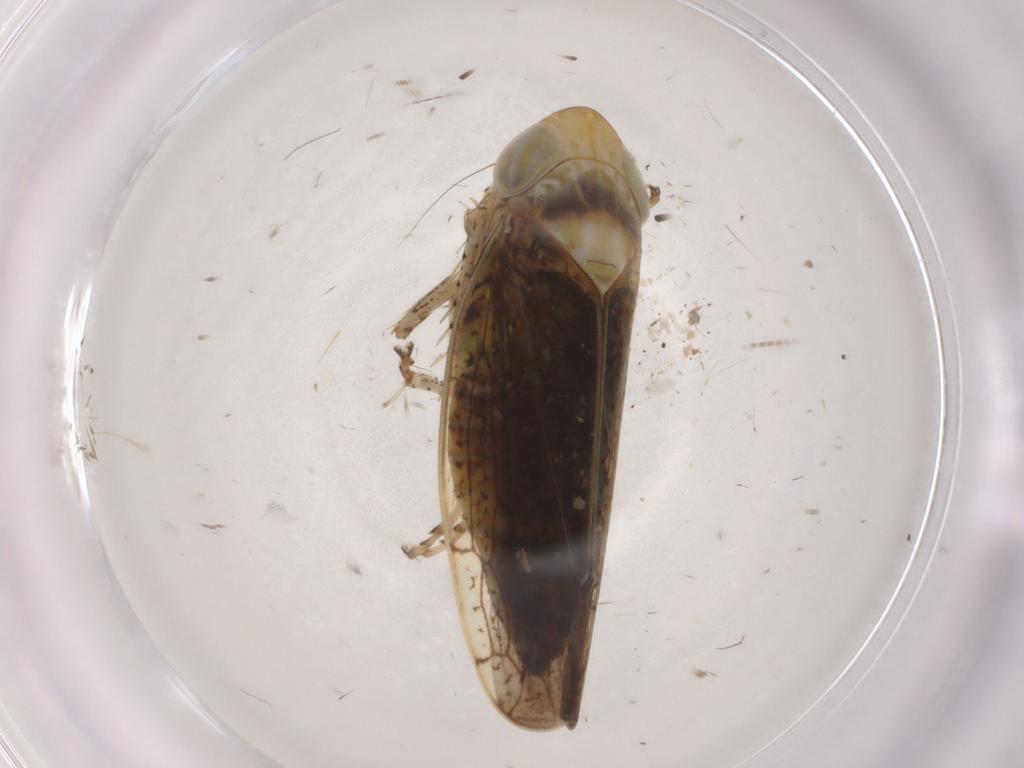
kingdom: Animalia
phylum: Arthropoda
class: Insecta
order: Hemiptera
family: Cicadellidae
